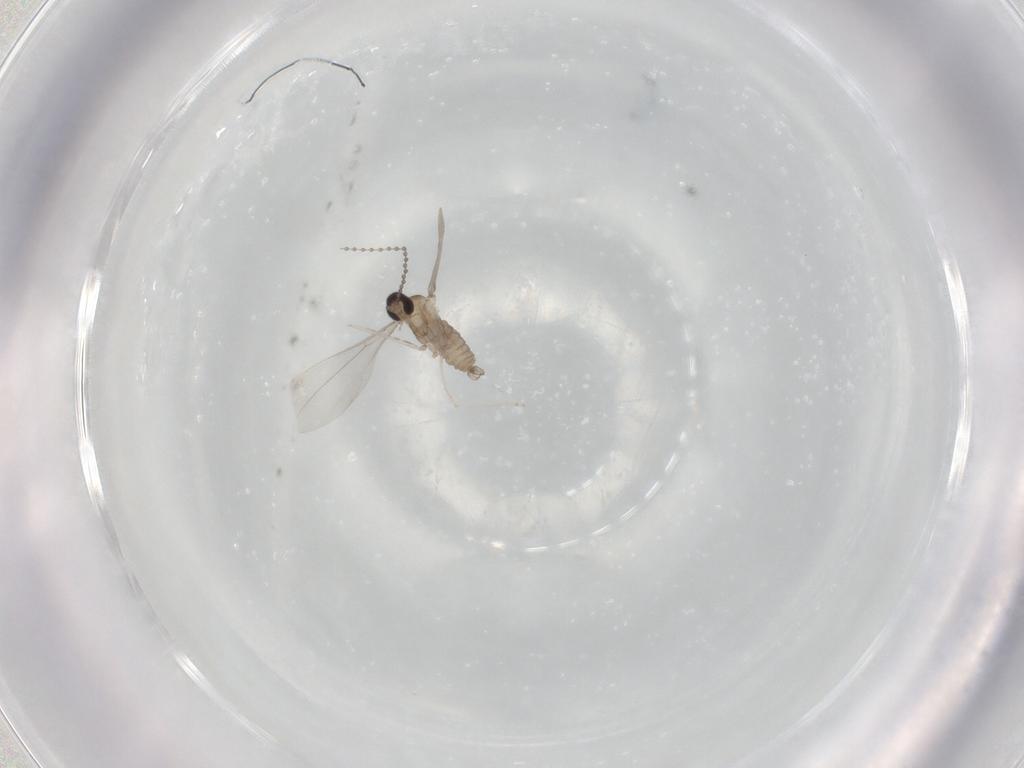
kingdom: Animalia
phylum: Arthropoda
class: Insecta
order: Diptera
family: Cecidomyiidae
